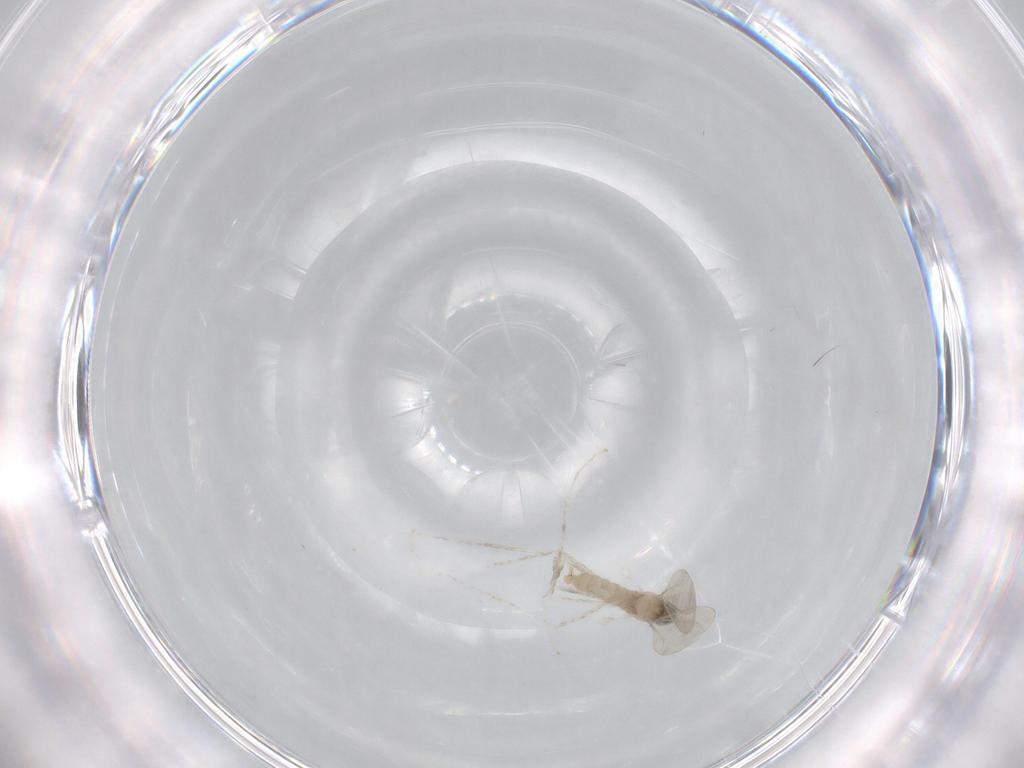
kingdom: Animalia
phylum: Arthropoda
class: Insecta
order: Diptera
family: Cecidomyiidae
